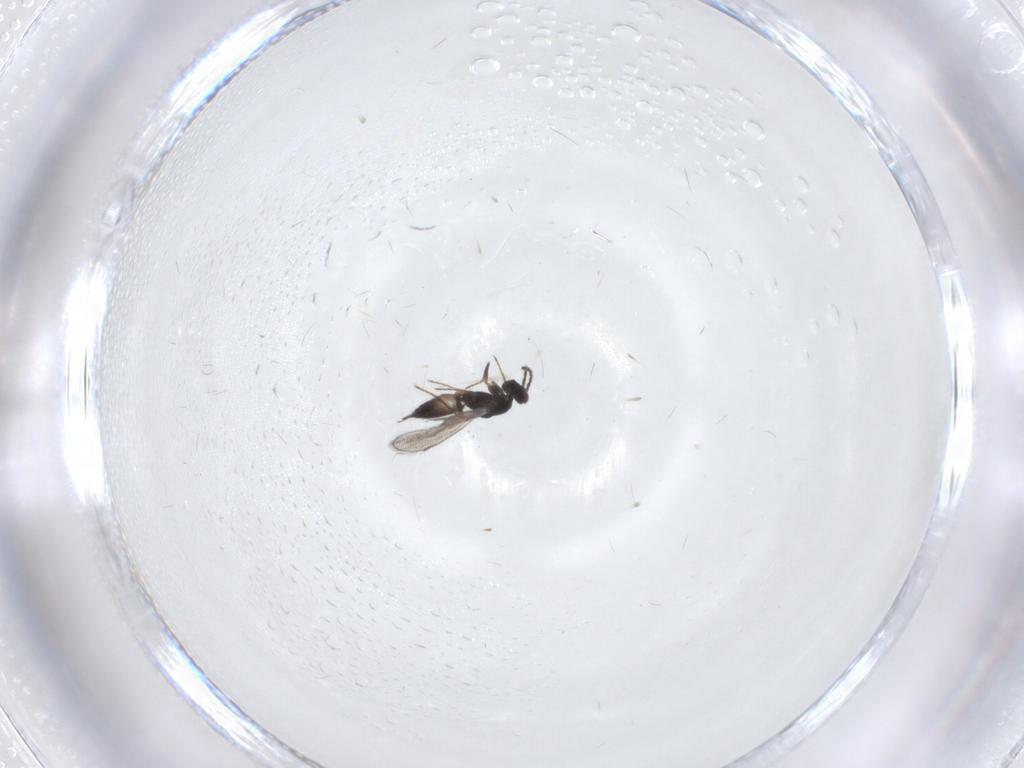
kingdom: Animalia
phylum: Arthropoda
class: Insecta
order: Hymenoptera
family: Eulophidae
